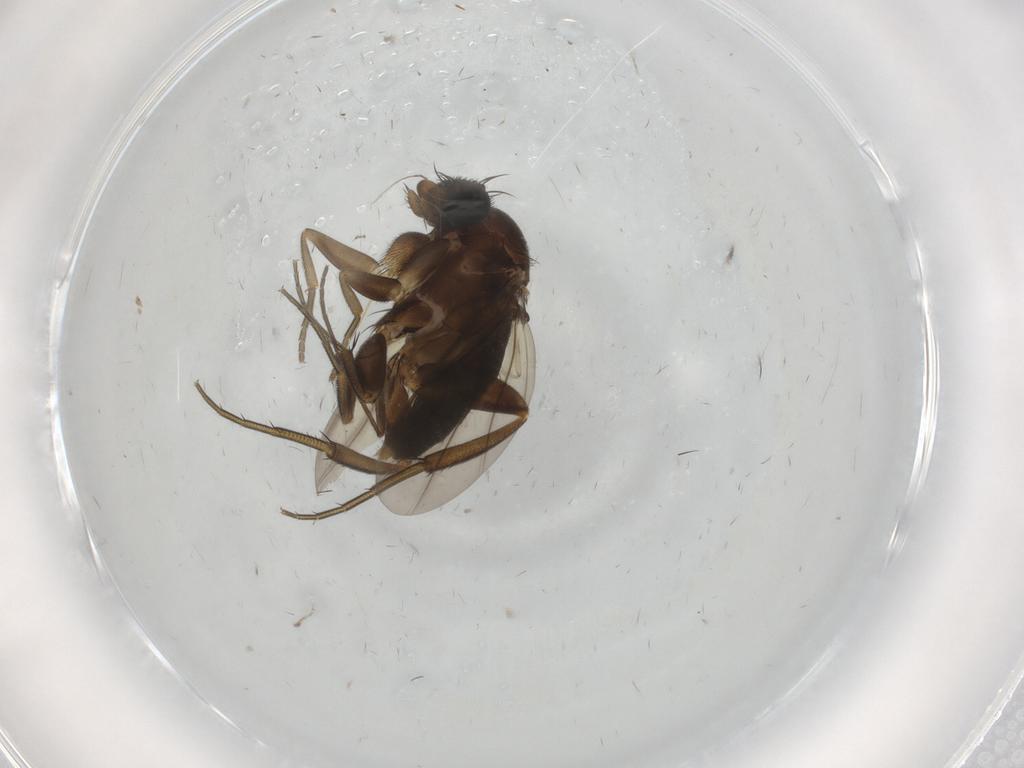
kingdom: Animalia
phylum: Arthropoda
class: Insecta
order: Diptera
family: Phoridae
